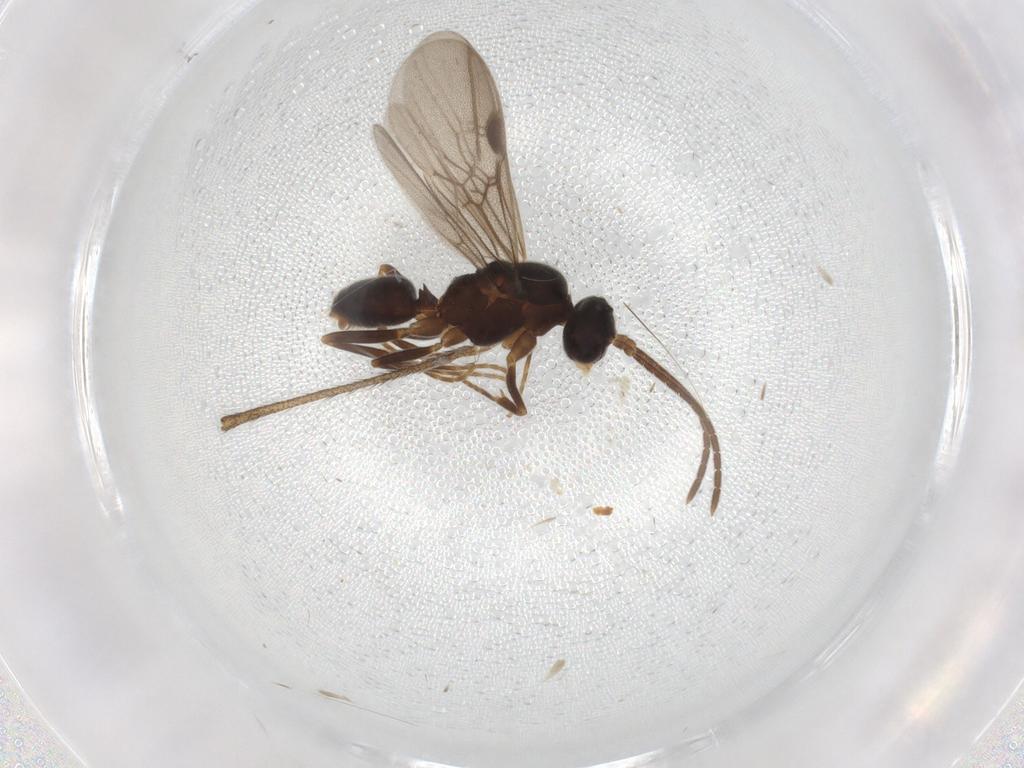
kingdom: Animalia
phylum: Arthropoda
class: Insecta
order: Hymenoptera
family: Formicidae
